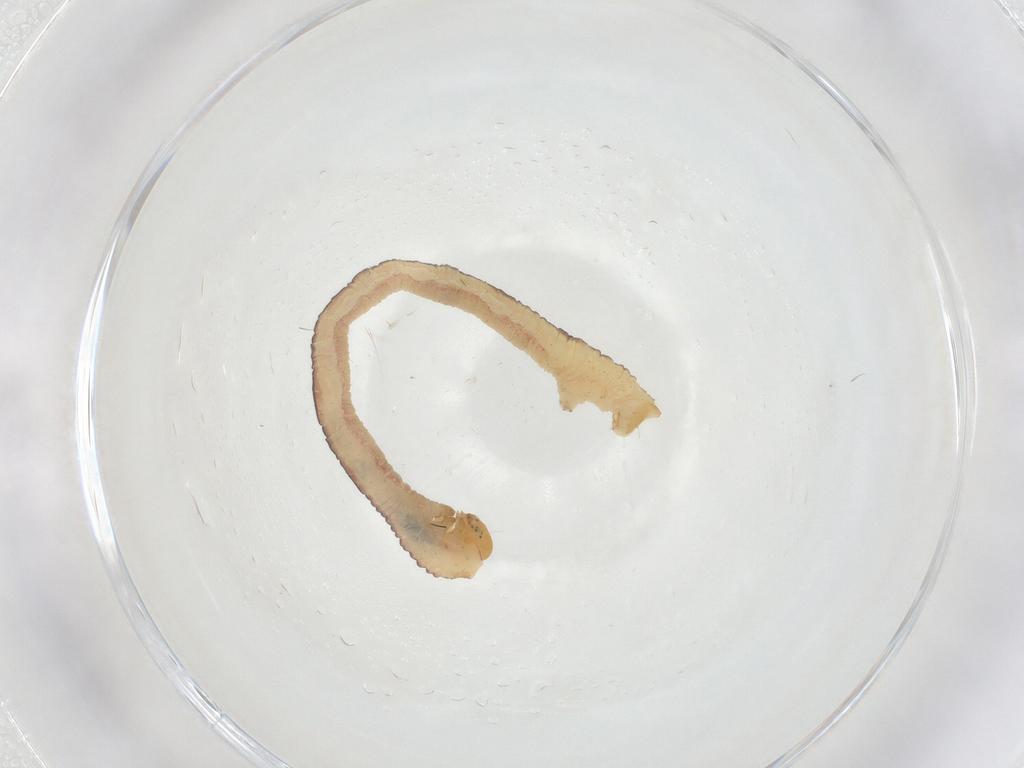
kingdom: Animalia
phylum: Arthropoda
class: Insecta
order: Lepidoptera
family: Geometridae
